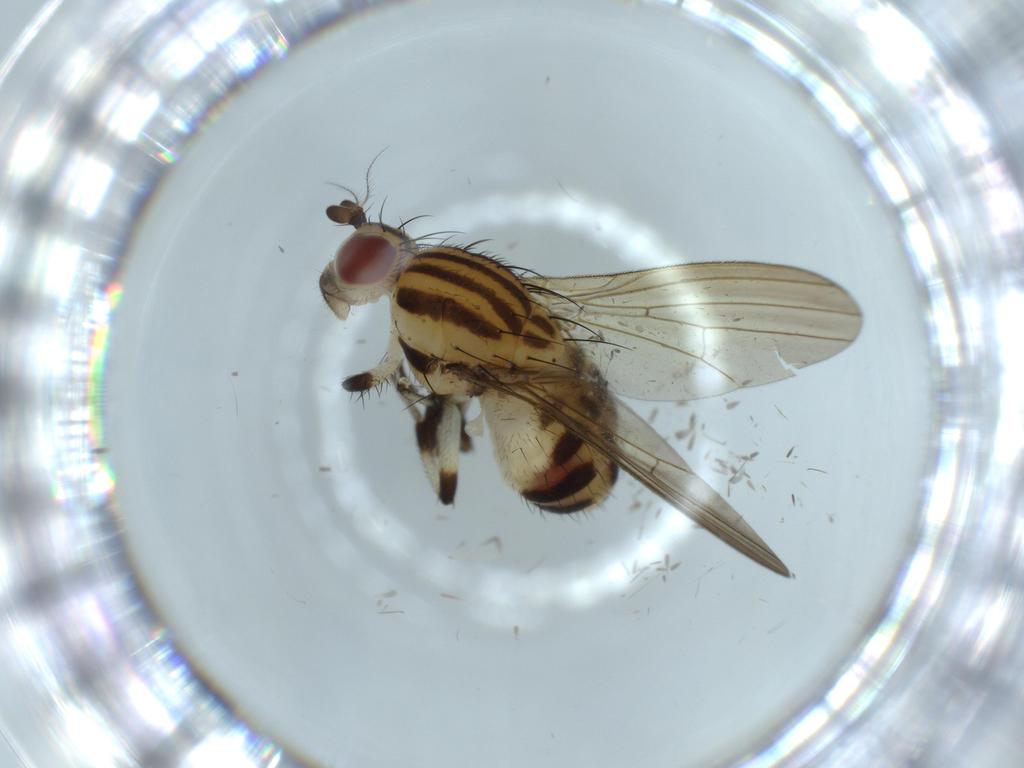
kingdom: Animalia
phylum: Arthropoda
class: Insecta
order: Diptera
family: Lauxaniidae
